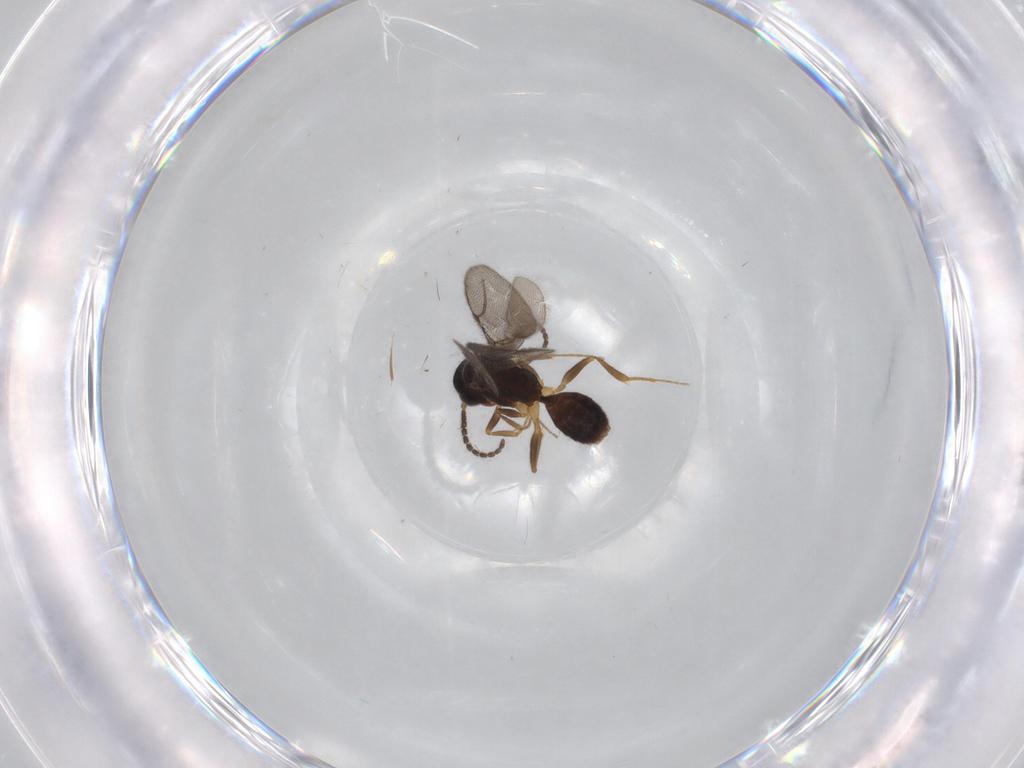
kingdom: Animalia
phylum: Arthropoda
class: Insecta
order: Hymenoptera
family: Bethylidae
